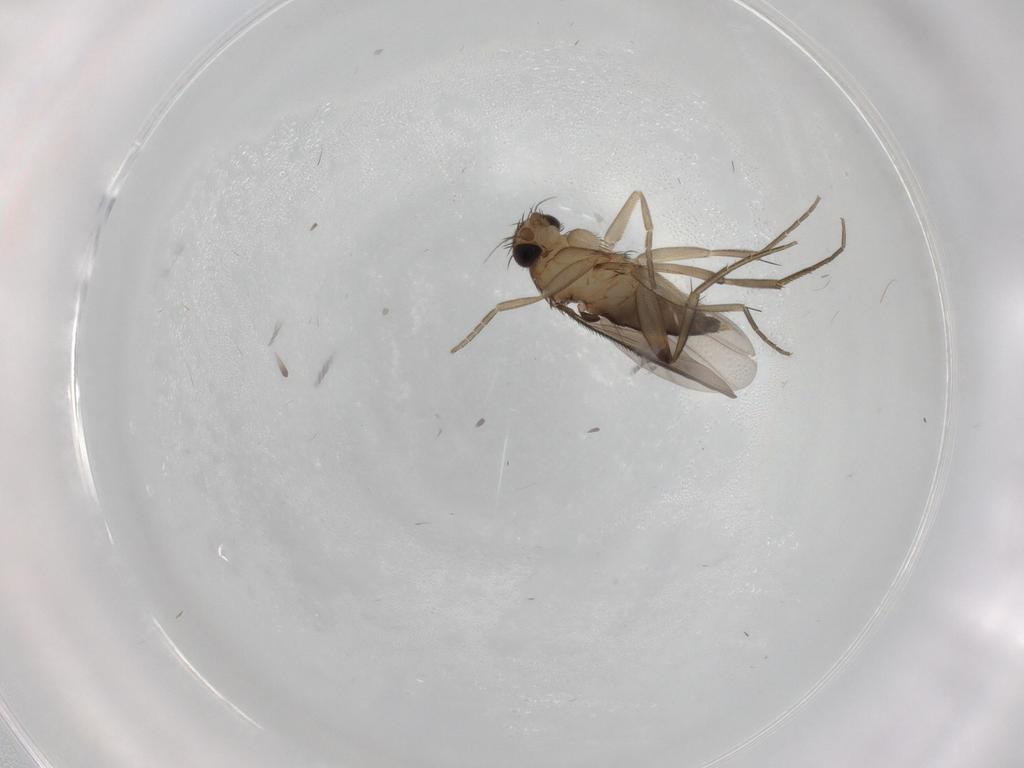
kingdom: Animalia
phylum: Arthropoda
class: Insecta
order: Diptera
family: Phoridae
